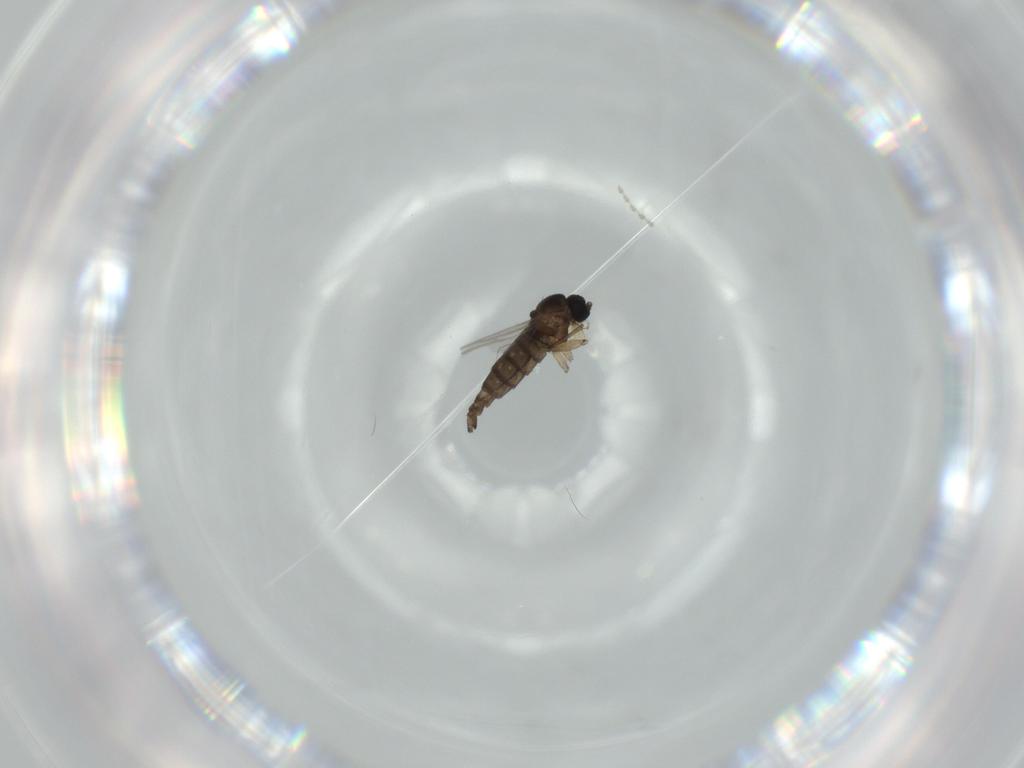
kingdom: Animalia
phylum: Arthropoda
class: Insecta
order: Diptera
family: Sciaridae
